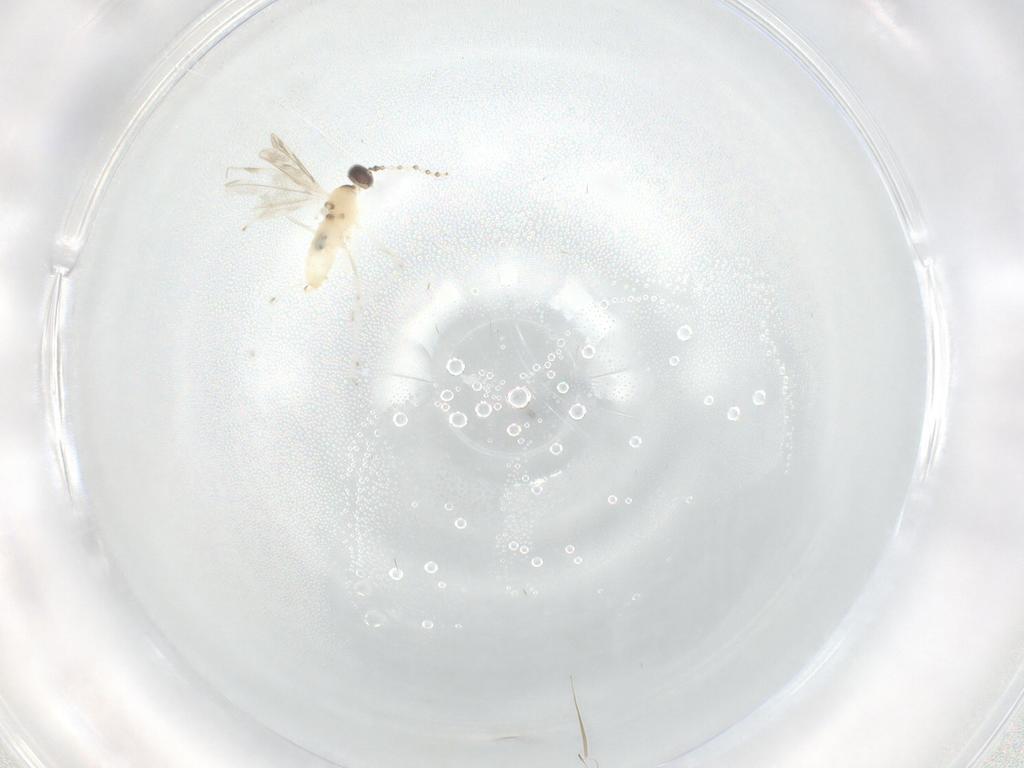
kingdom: Animalia
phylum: Arthropoda
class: Insecta
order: Diptera
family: Cecidomyiidae
